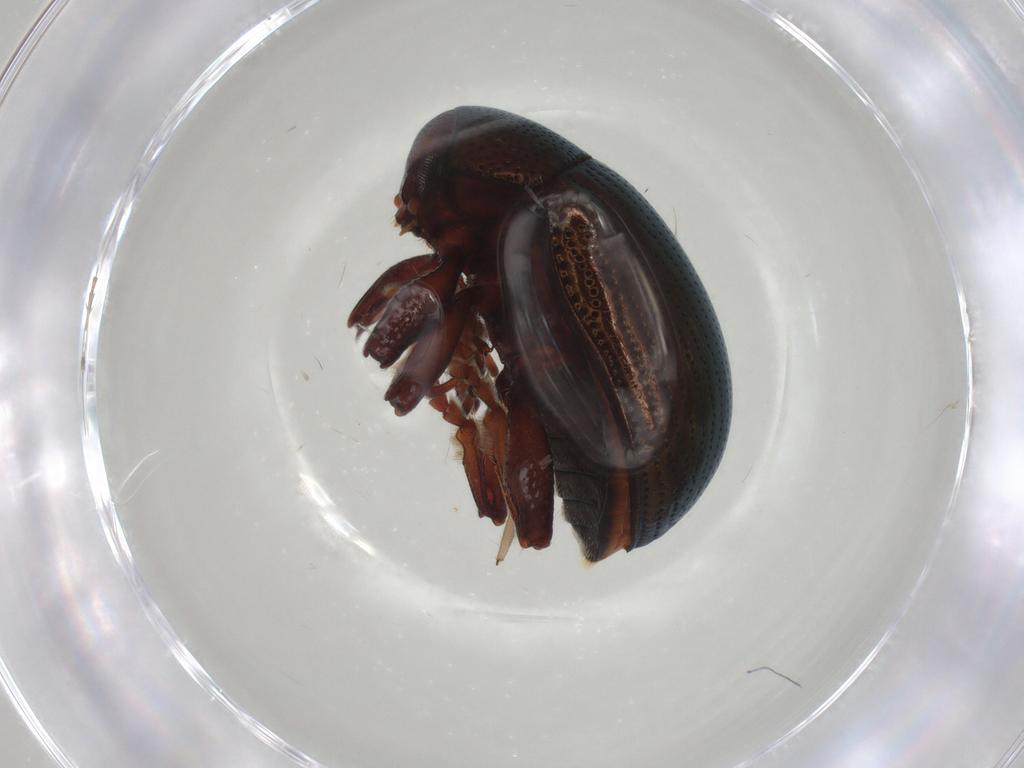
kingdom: Animalia
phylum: Arthropoda
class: Insecta
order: Coleoptera
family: Chrysomelidae
